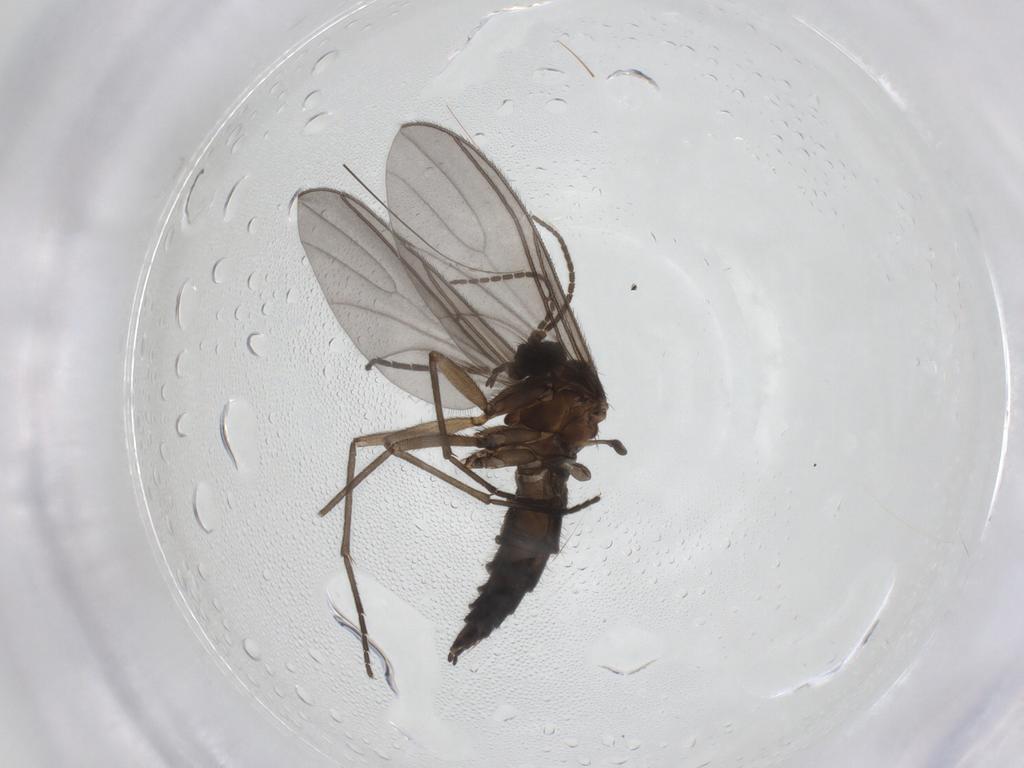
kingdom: Animalia
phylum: Arthropoda
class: Insecta
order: Diptera
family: Sciaridae
